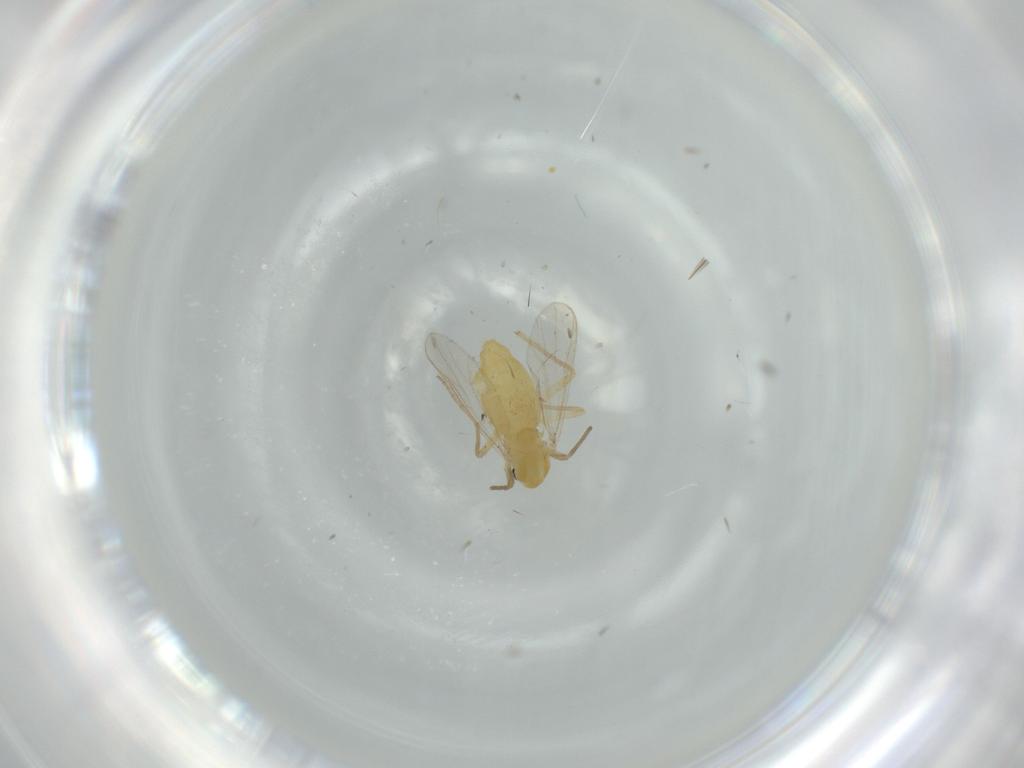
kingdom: Animalia
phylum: Arthropoda
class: Insecta
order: Diptera
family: Chironomidae
